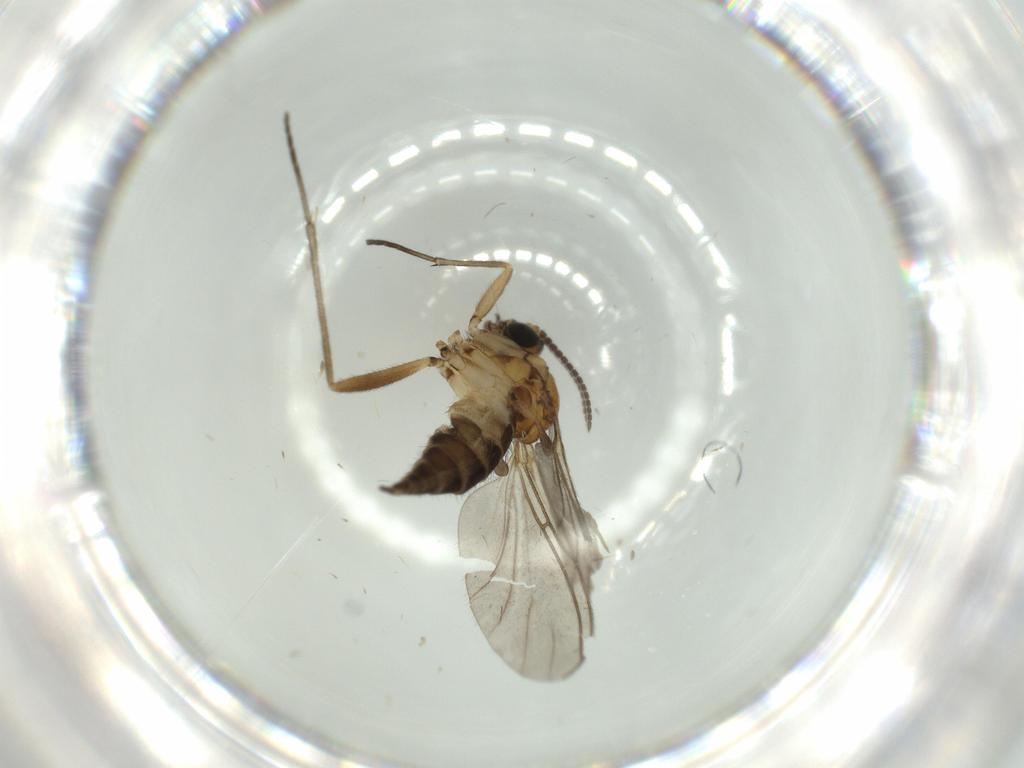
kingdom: Animalia
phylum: Arthropoda
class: Insecta
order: Diptera
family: Sciaridae
